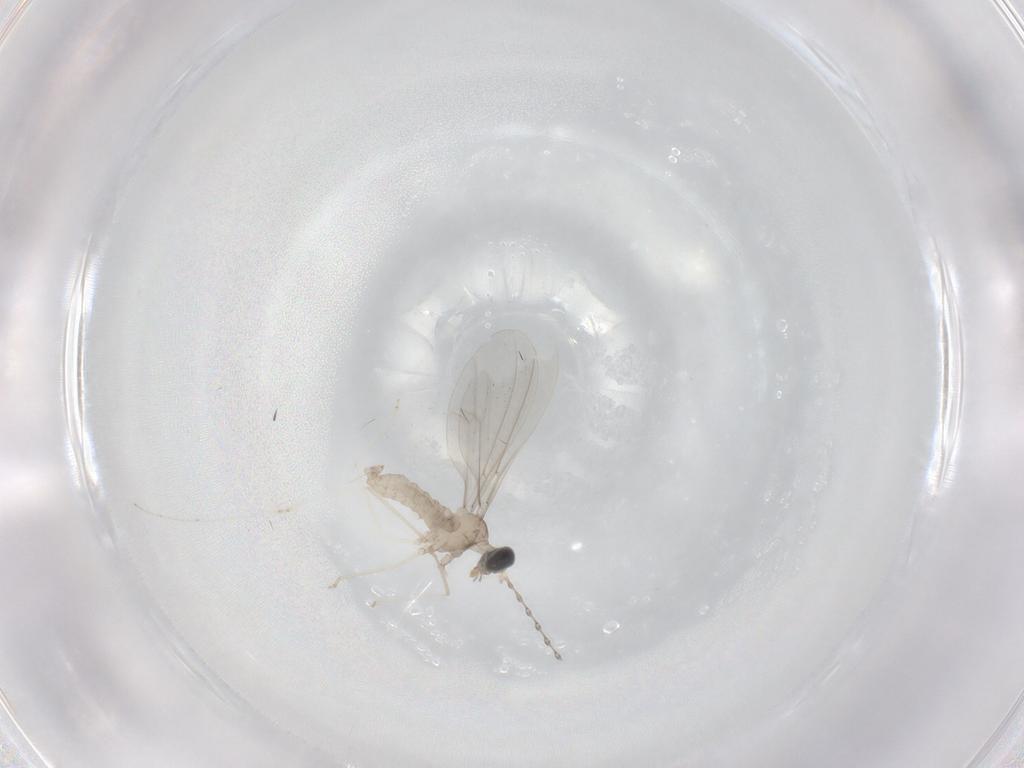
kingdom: Animalia
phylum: Arthropoda
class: Insecta
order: Diptera
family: Cecidomyiidae
